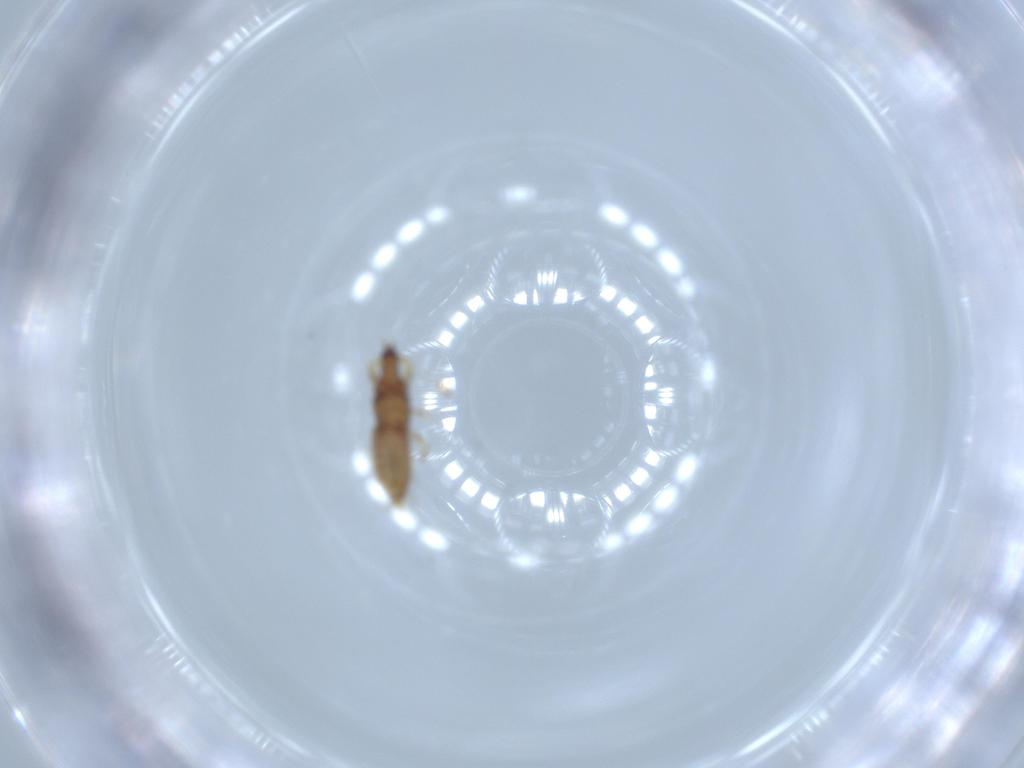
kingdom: Animalia
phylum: Arthropoda
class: Insecta
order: Thysanoptera
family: Phlaeothripidae
